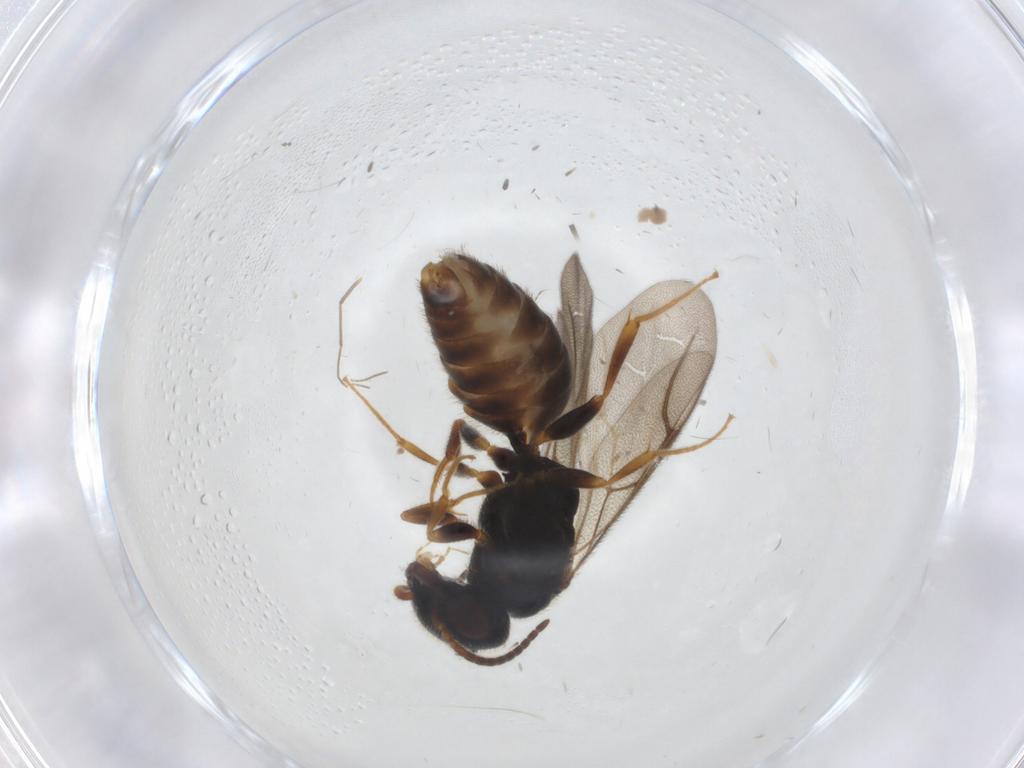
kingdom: Animalia
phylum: Arthropoda
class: Insecta
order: Hymenoptera
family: Bethylidae
